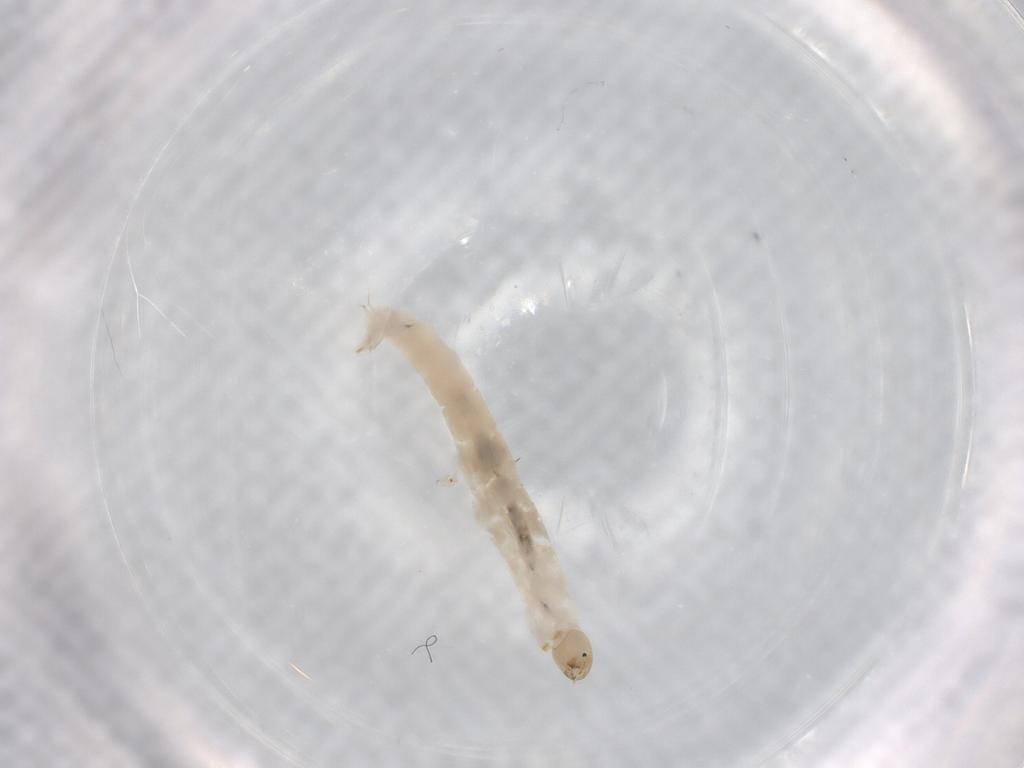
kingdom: Animalia
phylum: Arthropoda
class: Insecta
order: Diptera
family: Chironomidae
